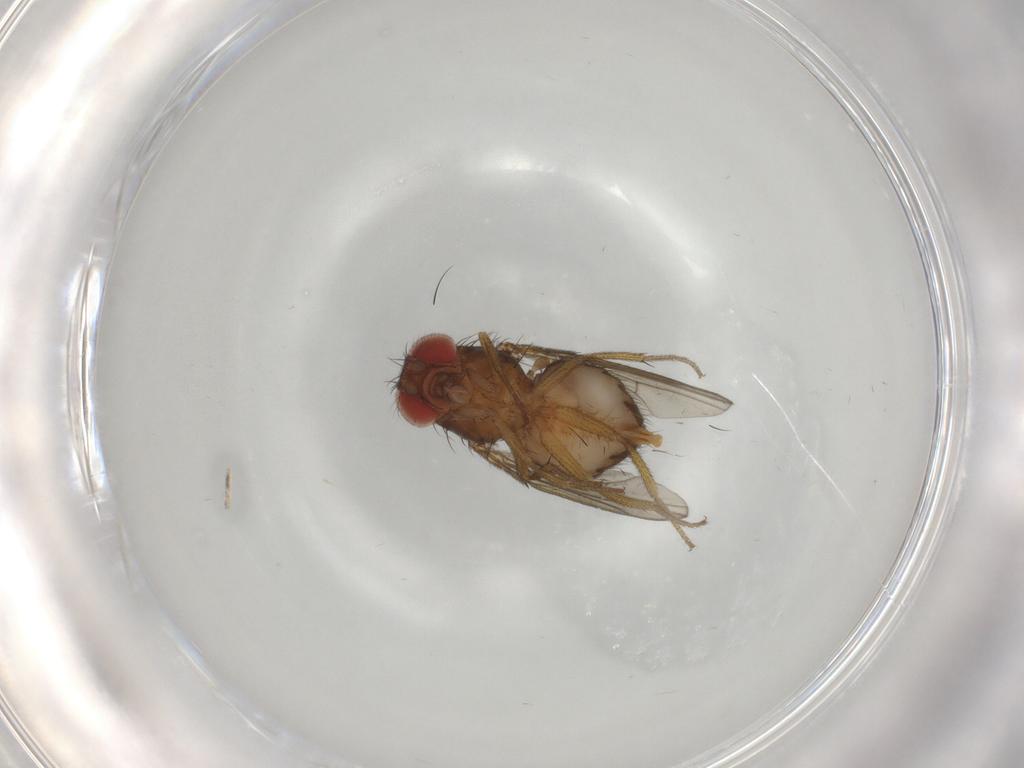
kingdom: Animalia
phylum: Arthropoda
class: Insecta
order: Diptera
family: Drosophilidae
